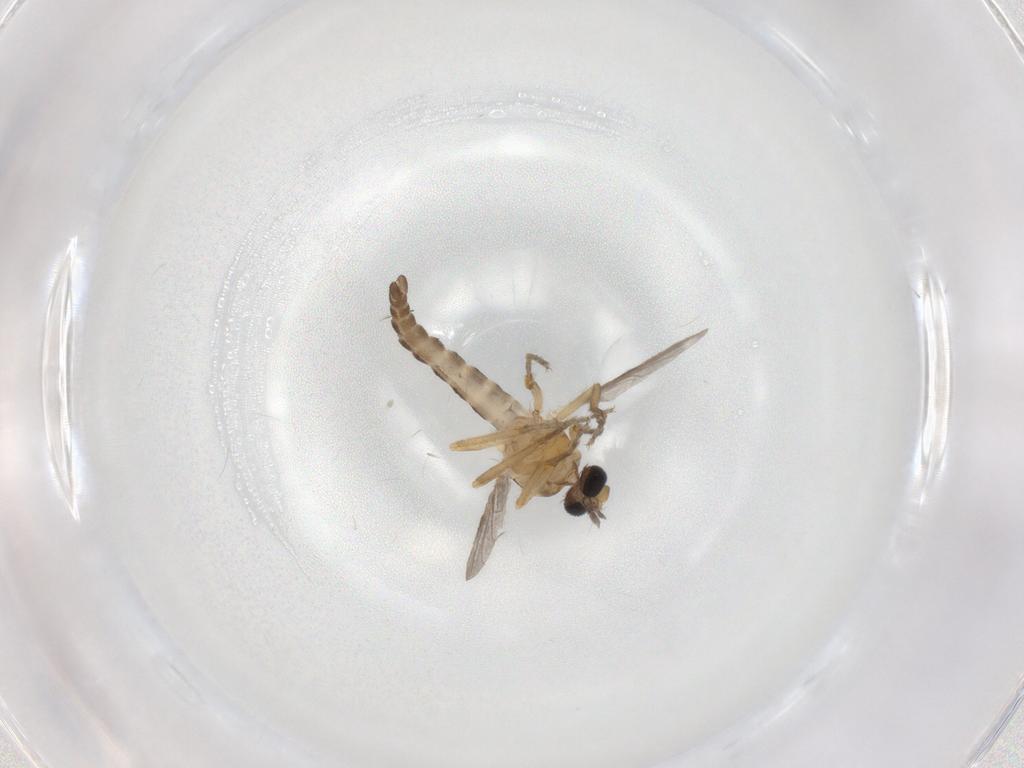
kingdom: Animalia
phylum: Arthropoda
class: Insecta
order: Diptera
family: Ceratopogonidae
